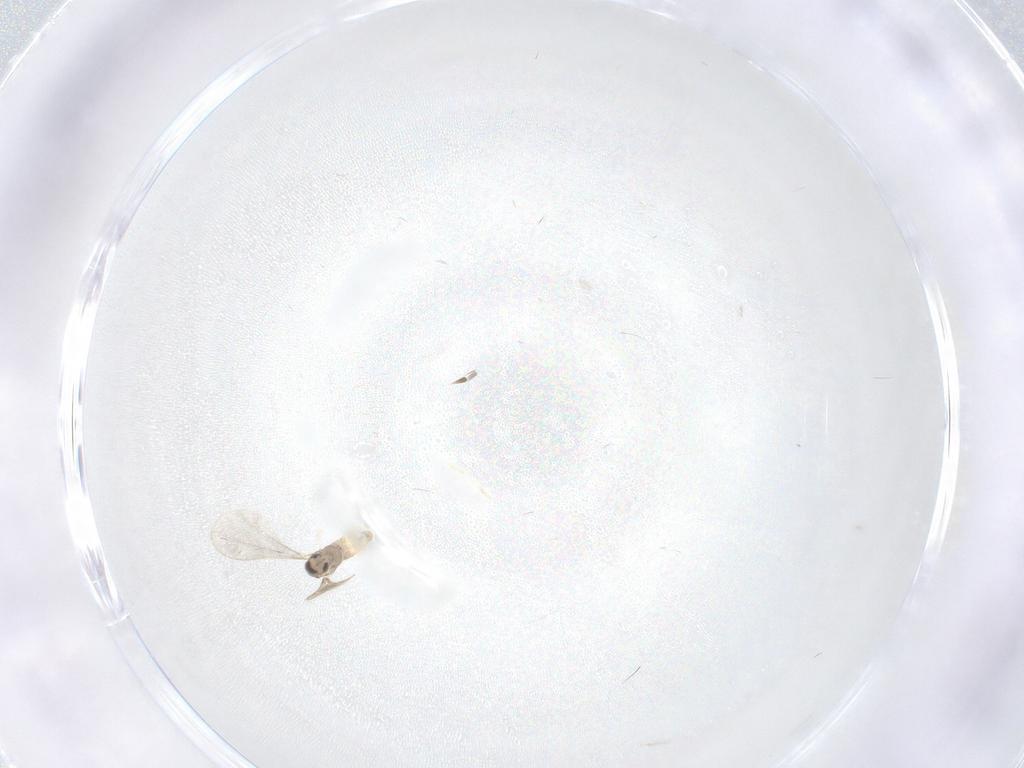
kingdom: Animalia
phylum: Arthropoda
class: Insecta
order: Diptera
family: Cecidomyiidae
